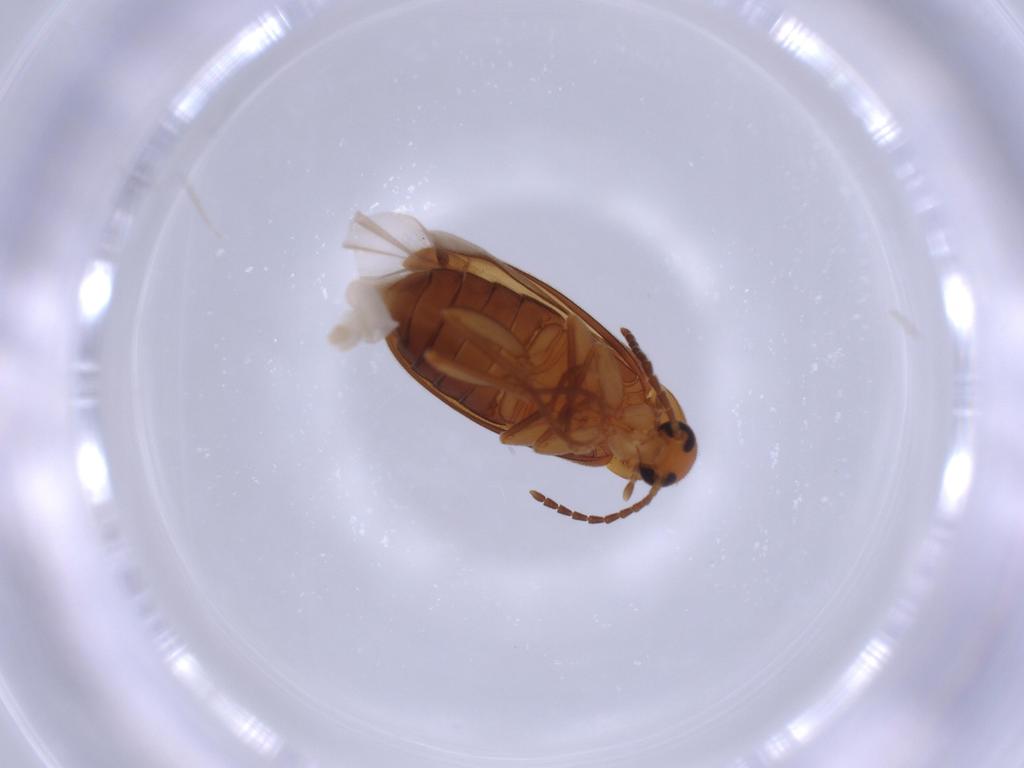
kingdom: Animalia
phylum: Arthropoda
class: Insecta
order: Coleoptera
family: Scraptiidae
